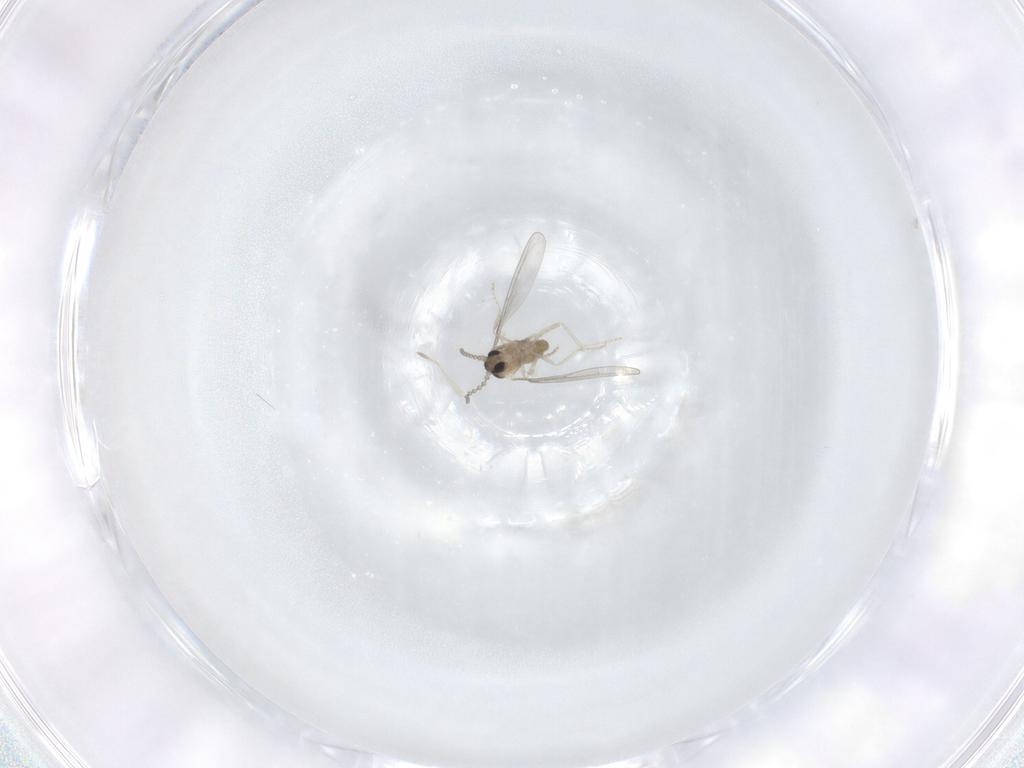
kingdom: Animalia
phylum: Arthropoda
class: Insecta
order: Diptera
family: Cecidomyiidae
